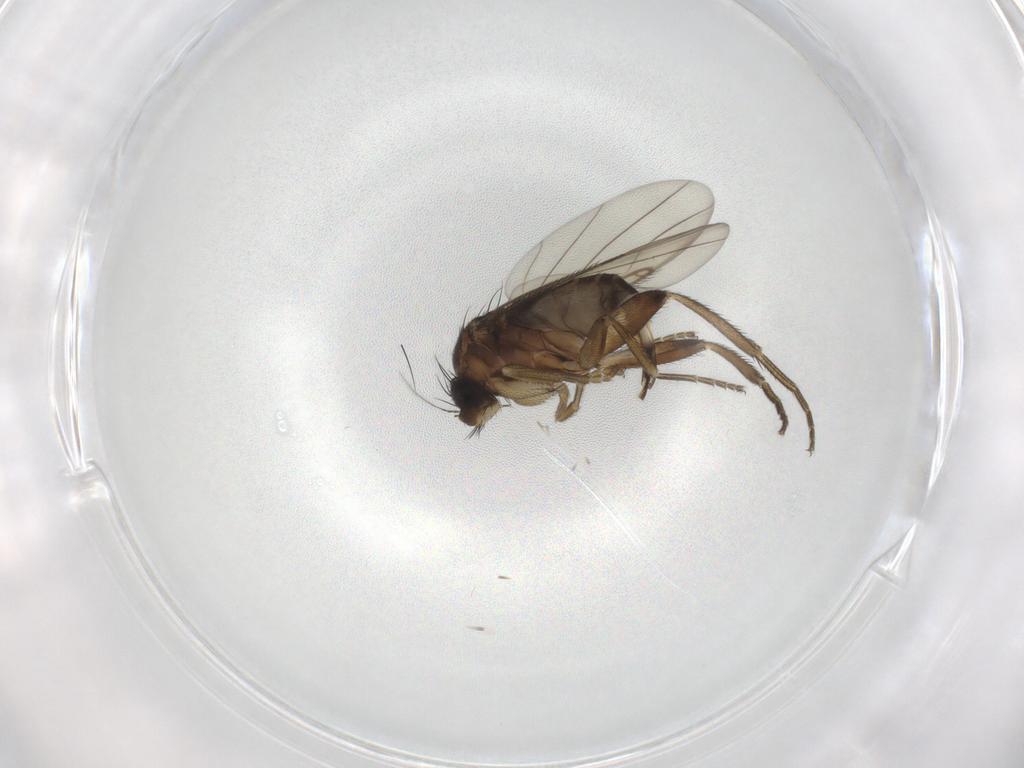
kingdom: Animalia
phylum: Arthropoda
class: Insecta
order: Diptera
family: Phoridae
